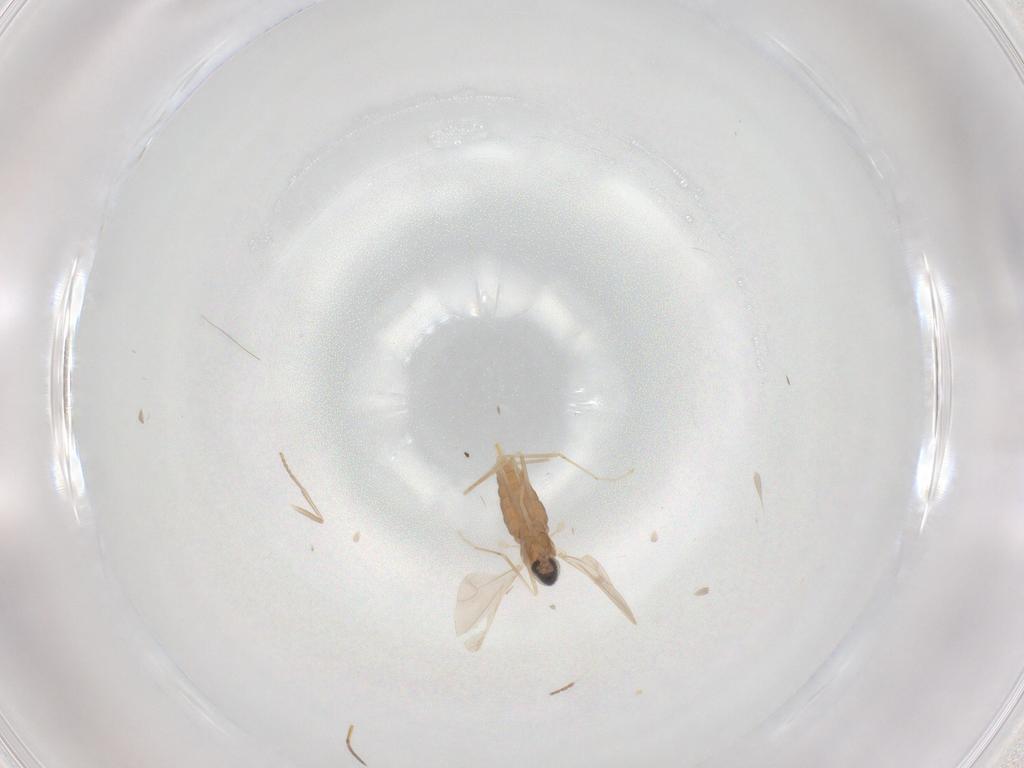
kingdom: Animalia
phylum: Arthropoda
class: Insecta
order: Diptera
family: Cecidomyiidae
